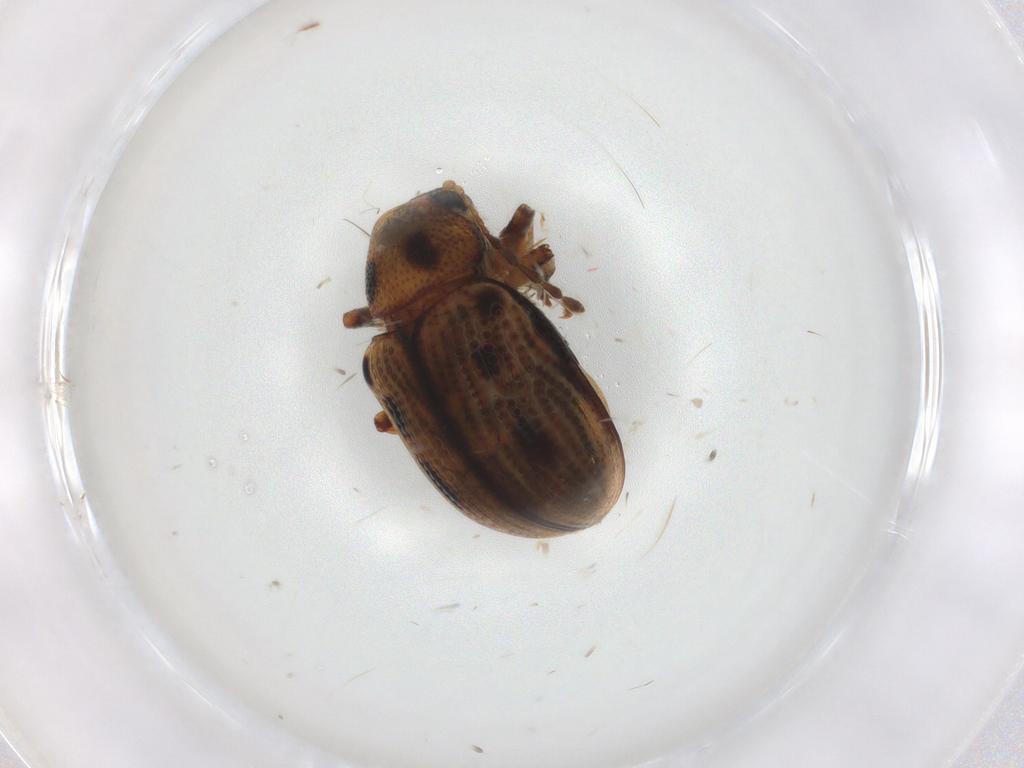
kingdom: Animalia
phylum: Arthropoda
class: Insecta
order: Coleoptera
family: Chrysomelidae
